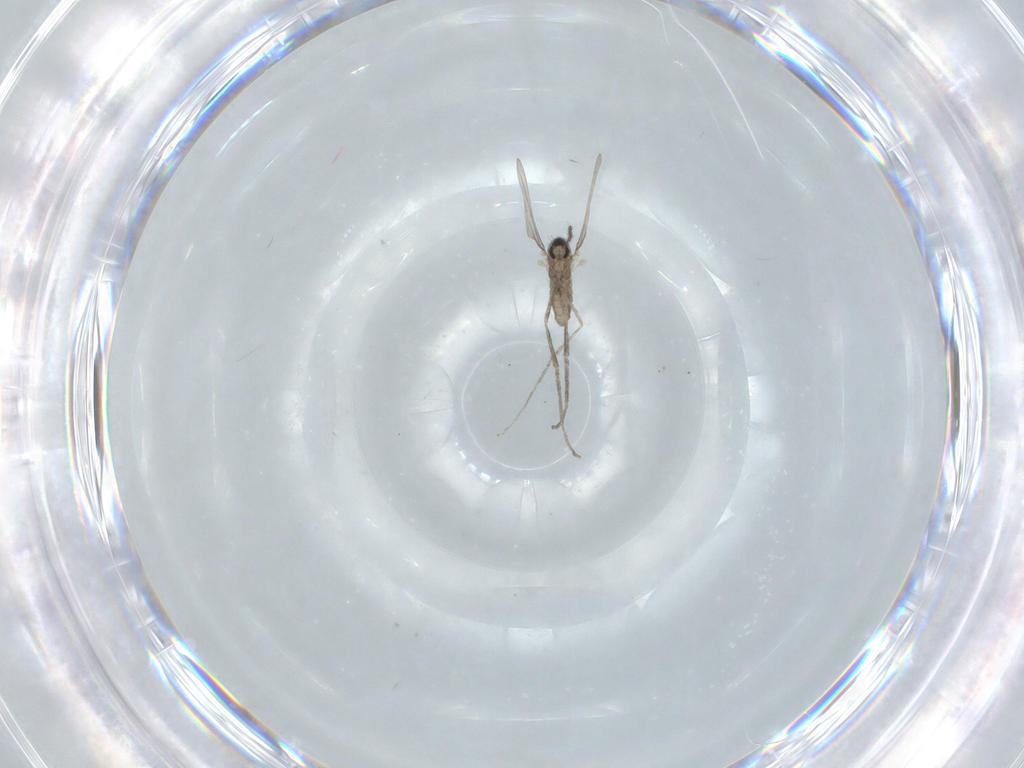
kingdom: Animalia
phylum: Arthropoda
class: Insecta
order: Diptera
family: Cecidomyiidae
